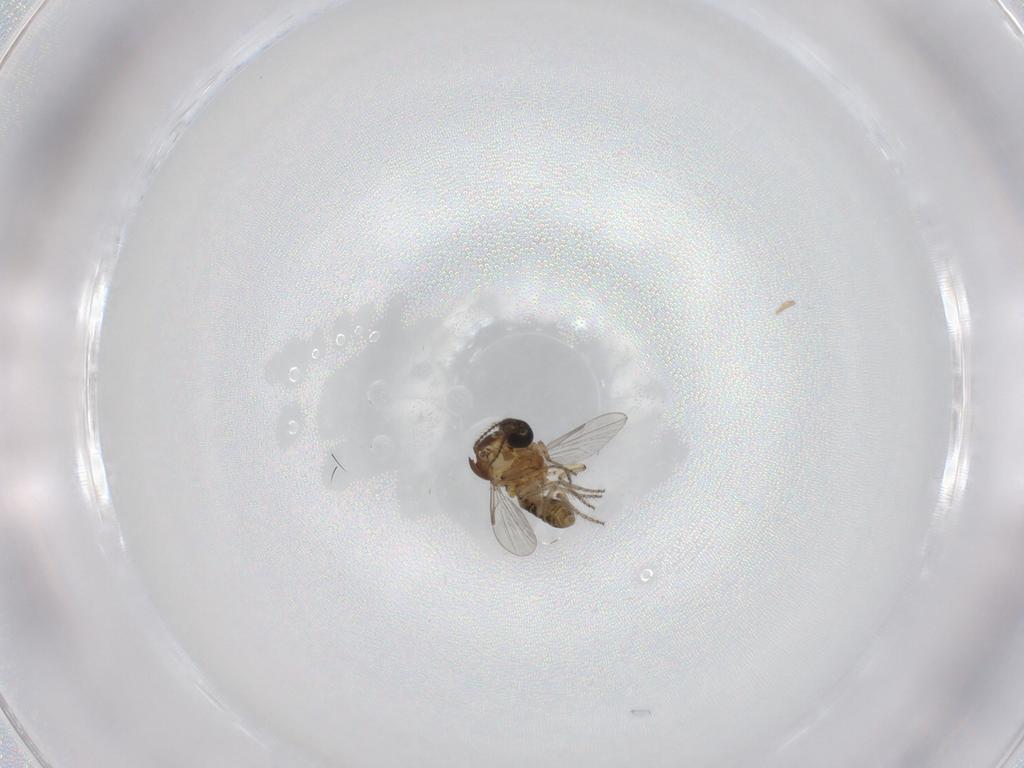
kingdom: Animalia
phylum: Arthropoda
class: Insecta
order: Diptera
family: Ceratopogonidae
